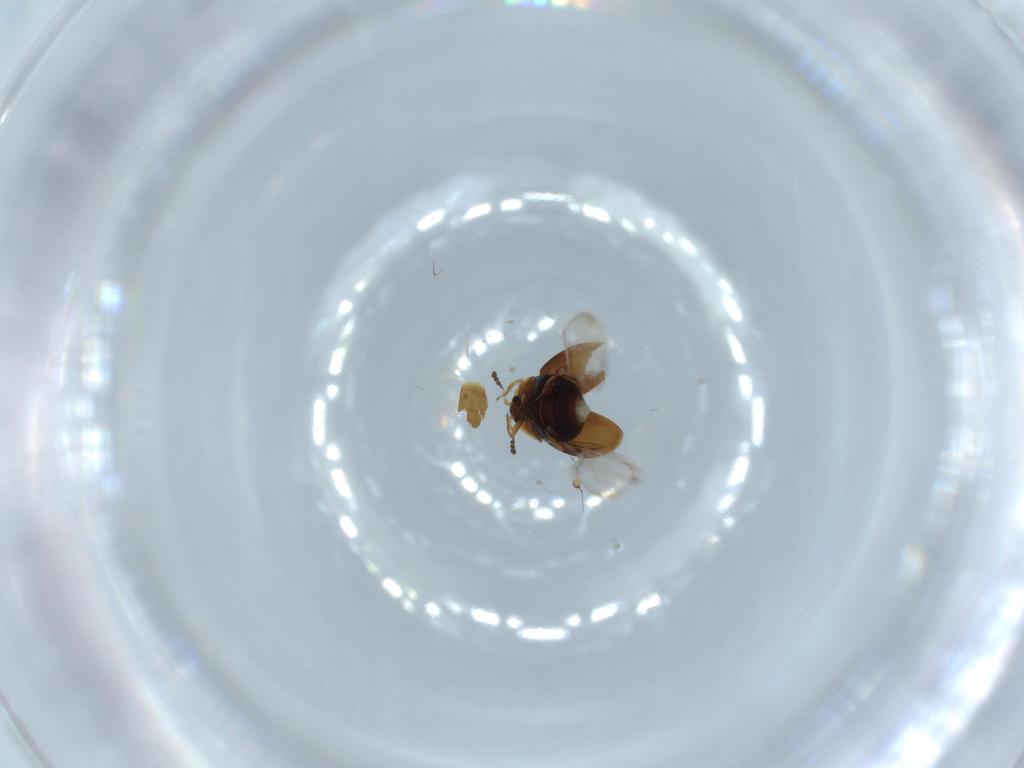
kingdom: Animalia
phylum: Arthropoda
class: Insecta
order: Coleoptera
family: Corylophidae
